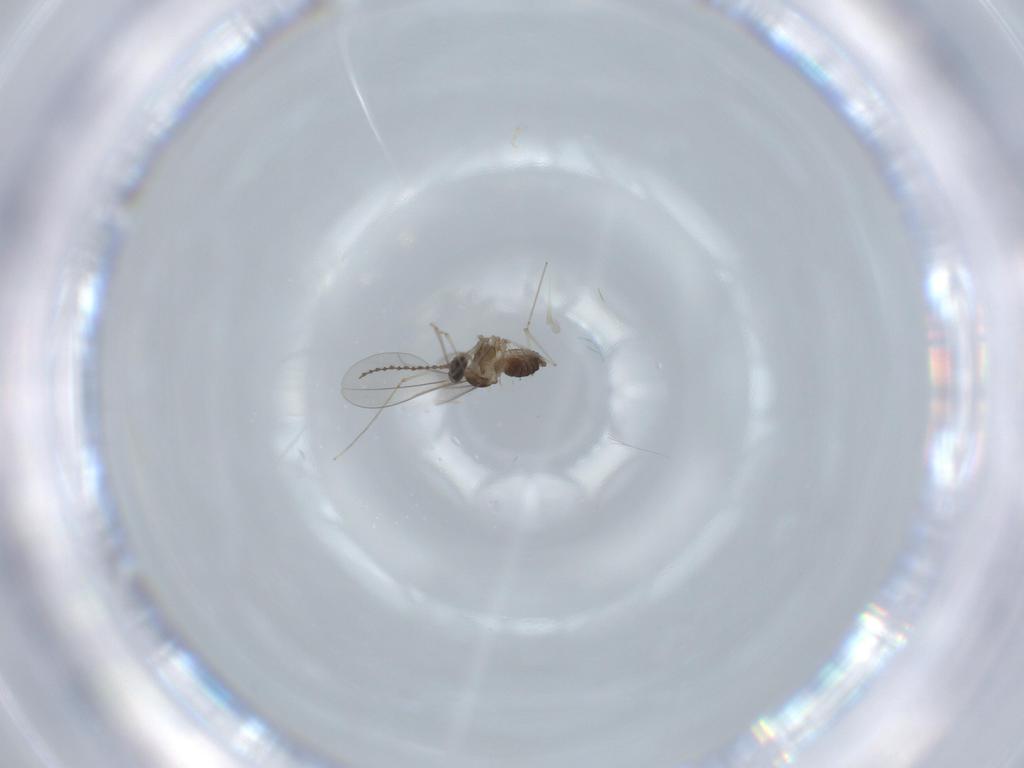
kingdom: Animalia
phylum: Arthropoda
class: Insecta
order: Diptera
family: Cecidomyiidae
